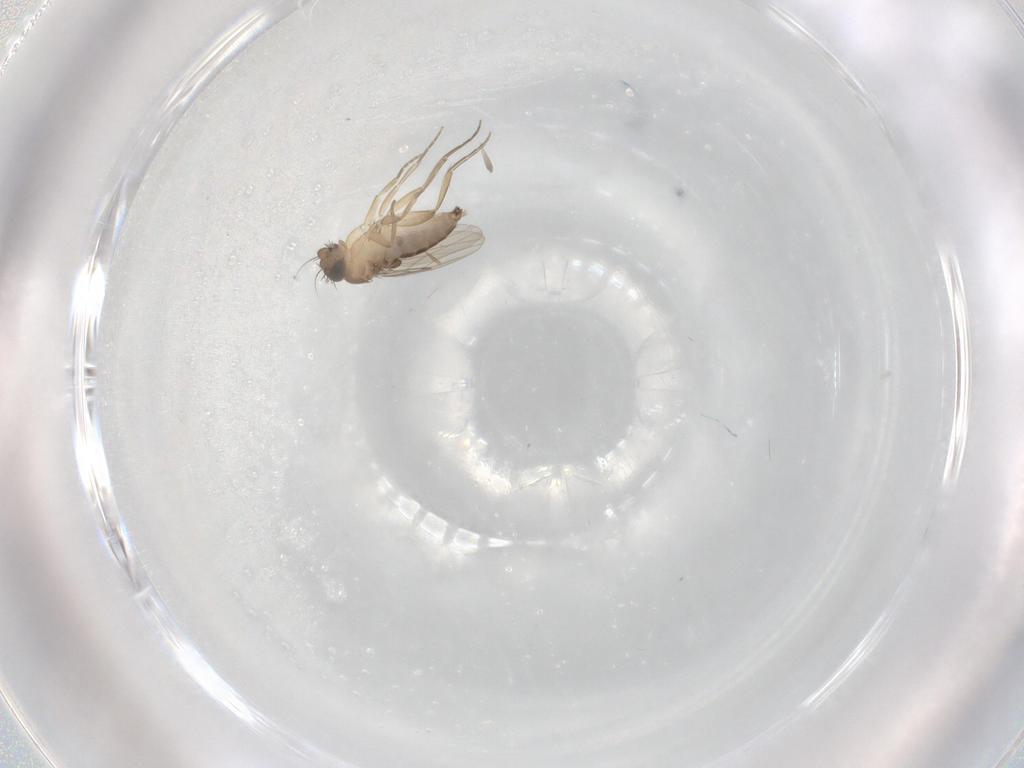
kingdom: Animalia
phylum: Arthropoda
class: Insecta
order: Diptera
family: Phoridae
